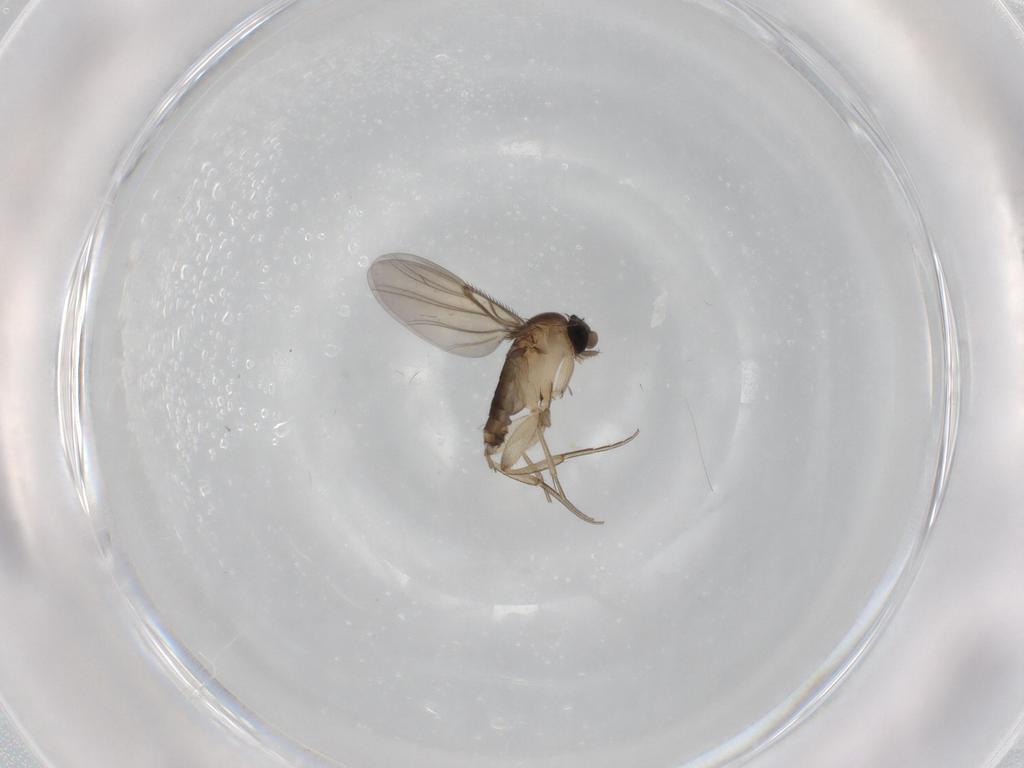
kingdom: Animalia
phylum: Arthropoda
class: Insecta
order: Diptera
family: Phoridae
